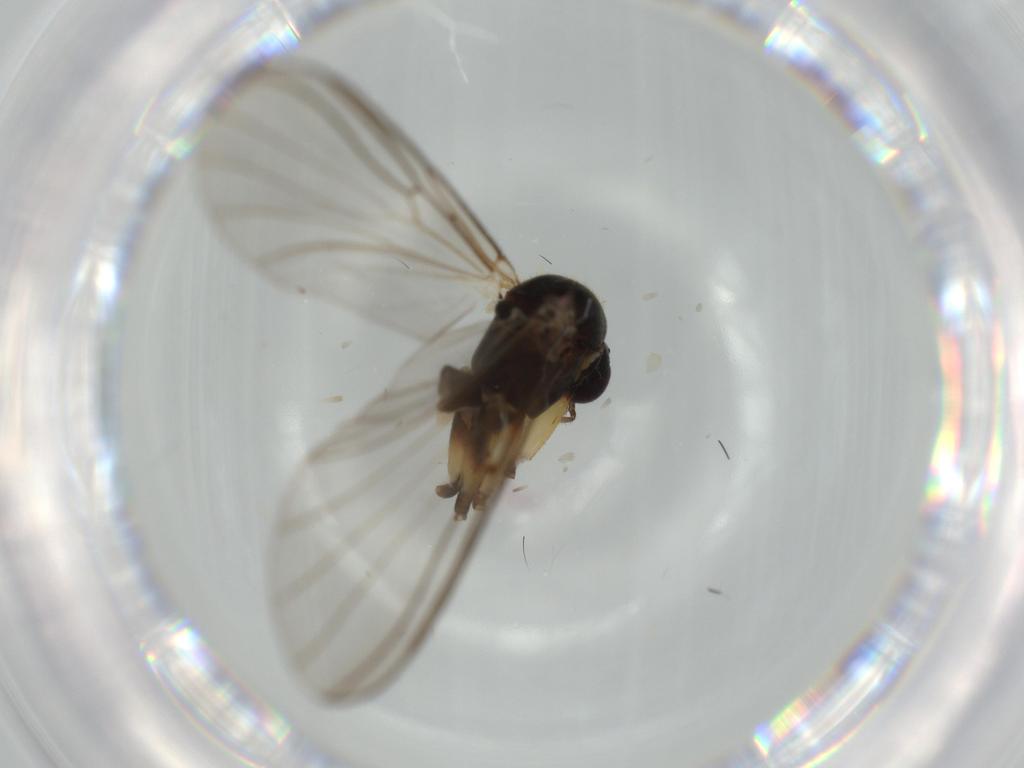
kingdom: Animalia
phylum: Arthropoda
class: Insecta
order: Diptera
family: Syrphidae
